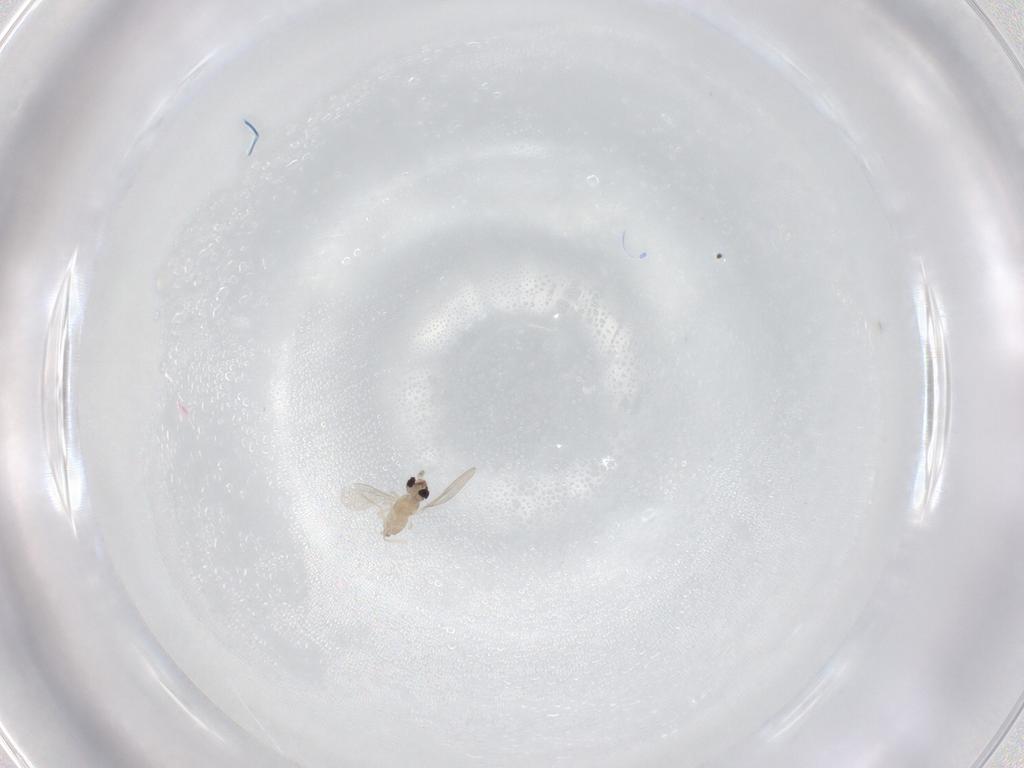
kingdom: Animalia
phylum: Arthropoda
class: Insecta
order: Diptera
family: Cecidomyiidae
